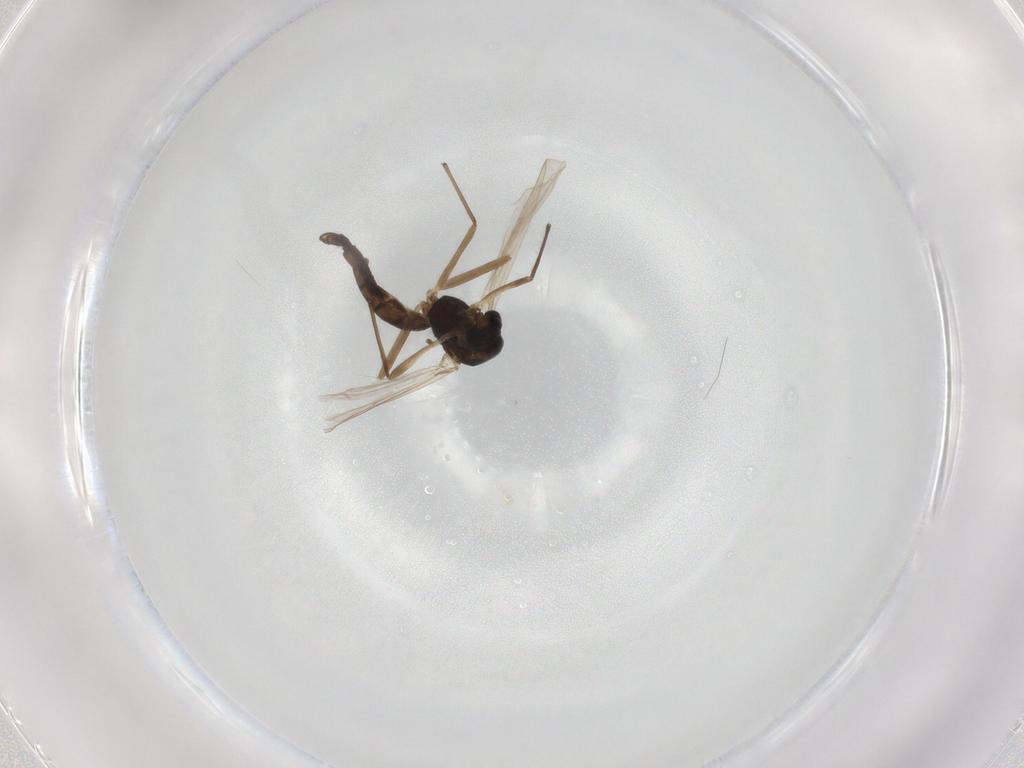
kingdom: Animalia
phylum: Arthropoda
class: Insecta
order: Diptera
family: Chironomidae
